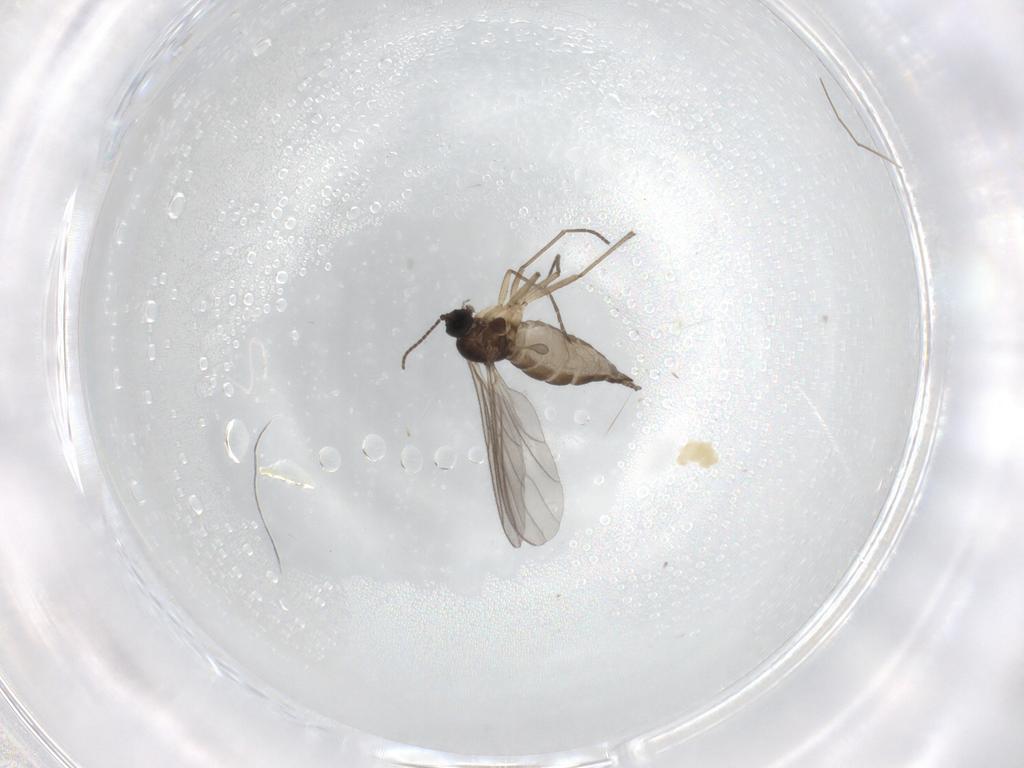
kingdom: Animalia
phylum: Arthropoda
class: Insecta
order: Diptera
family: Sciaridae
